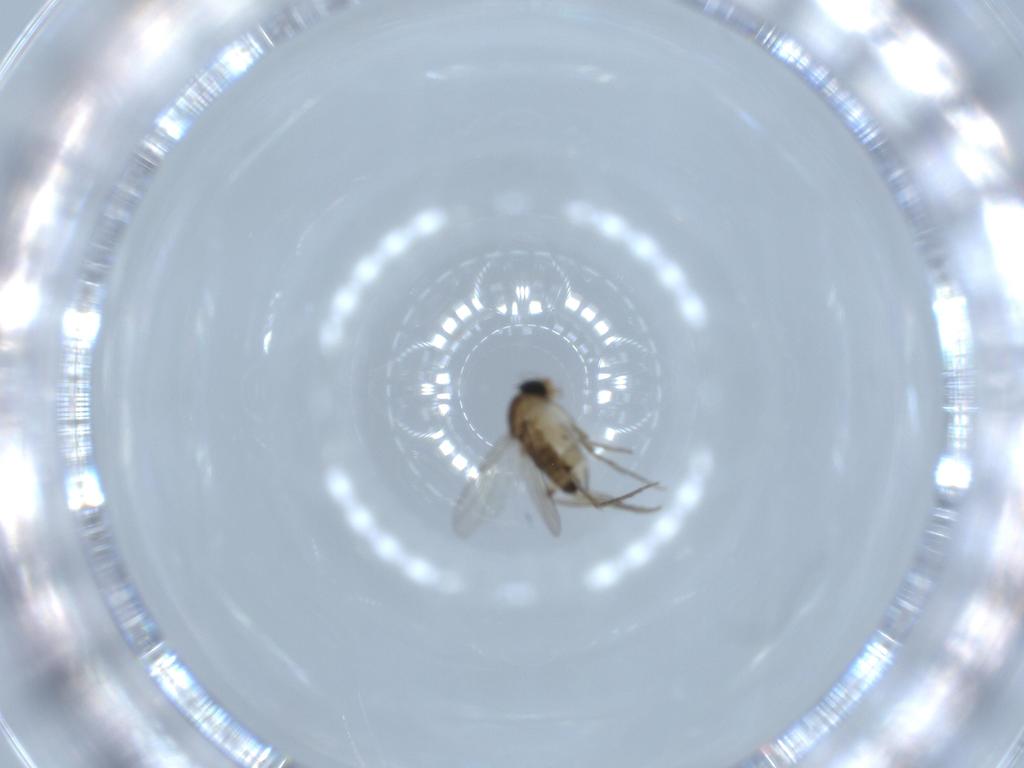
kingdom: Animalia
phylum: Arthropoda
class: Insecta
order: Diptera
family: Phoridae
